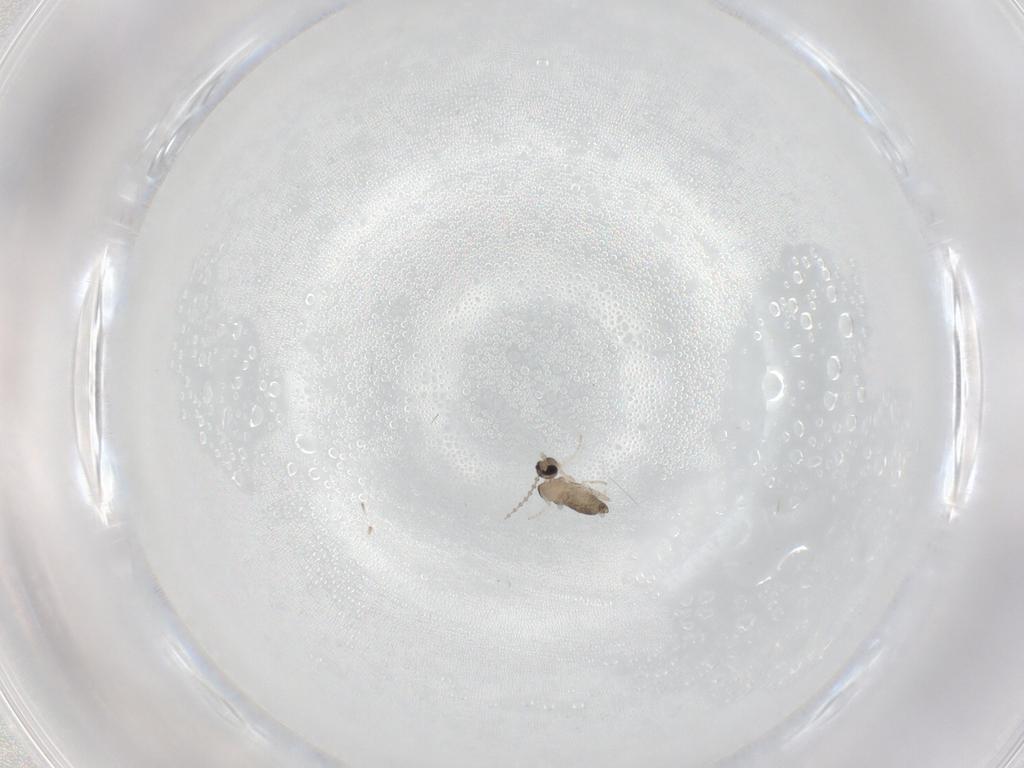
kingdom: Animalia
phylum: Arthropoda
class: Insecta
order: Diptera
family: Cecidomyiidae
